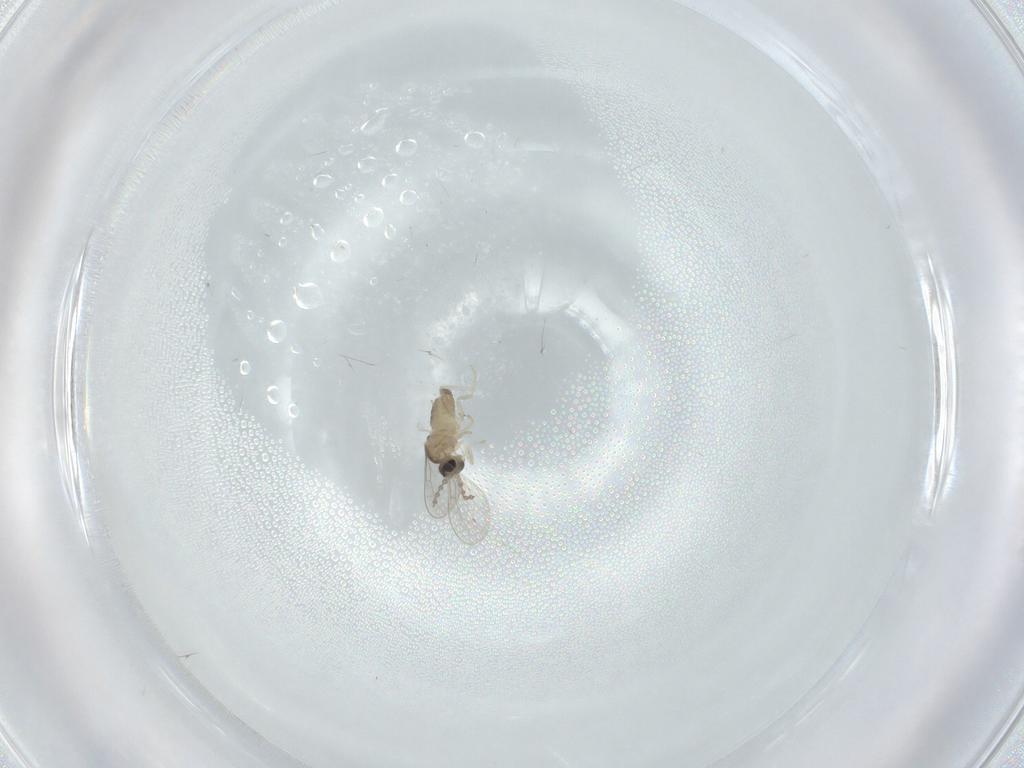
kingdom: Animalia
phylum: Arthropoda
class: Insecta
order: Diptera
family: Cecidomyiidae
